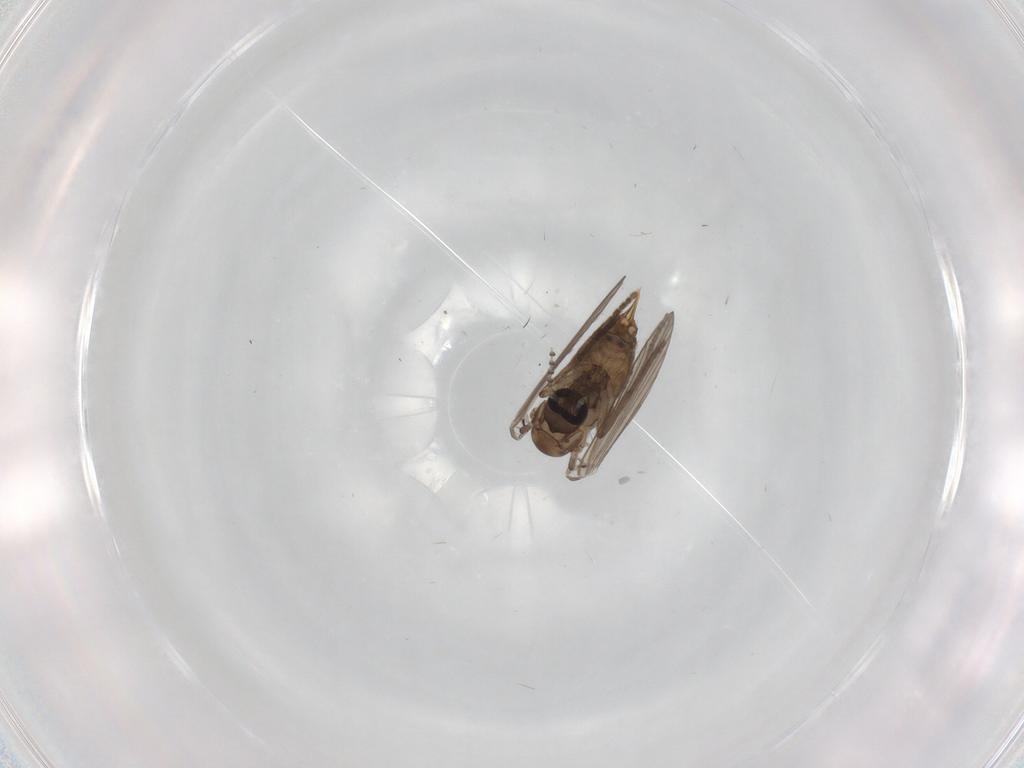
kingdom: Animalia
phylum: Arthropoda
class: Insecta
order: Diptera
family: Psychodidae
